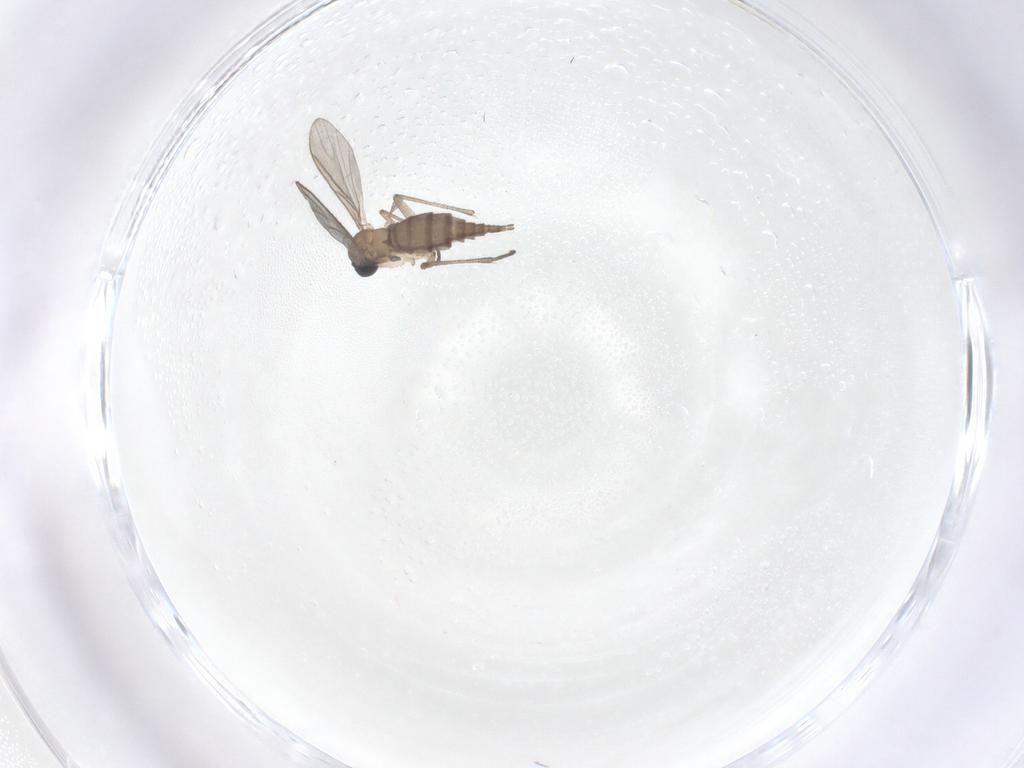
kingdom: Animalia
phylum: Arthropoda
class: Insecta
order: Diptera
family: Sciaridae
